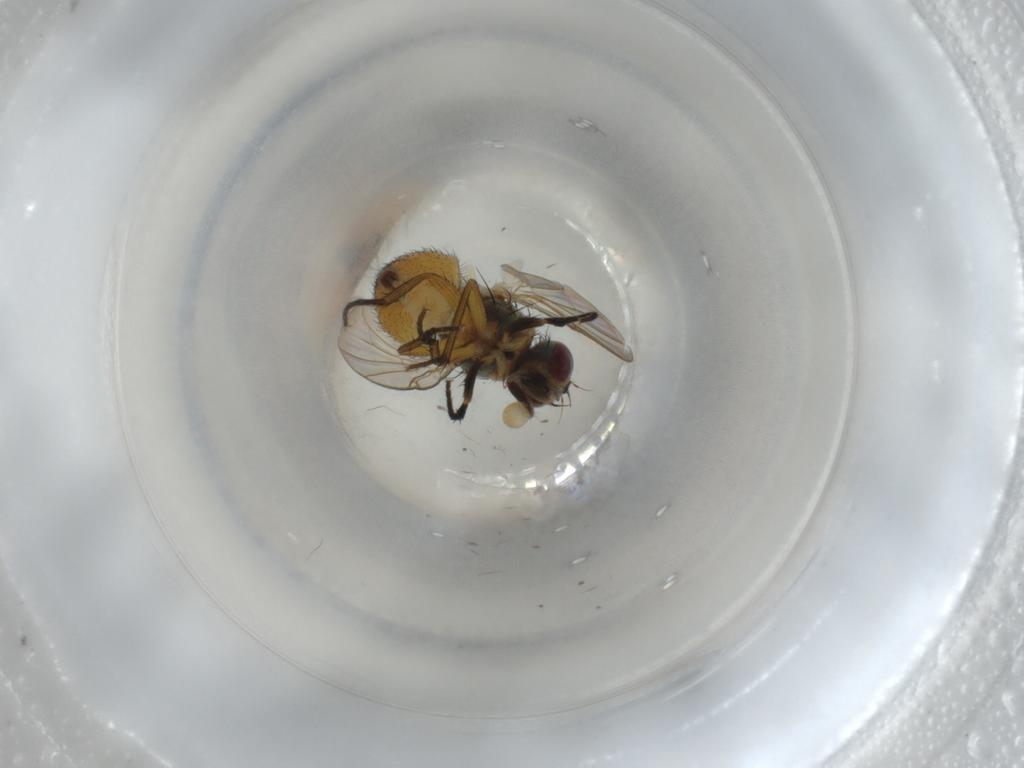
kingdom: Animalia
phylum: Arthropoda
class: Insecta
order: Diptera
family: Muscidae
